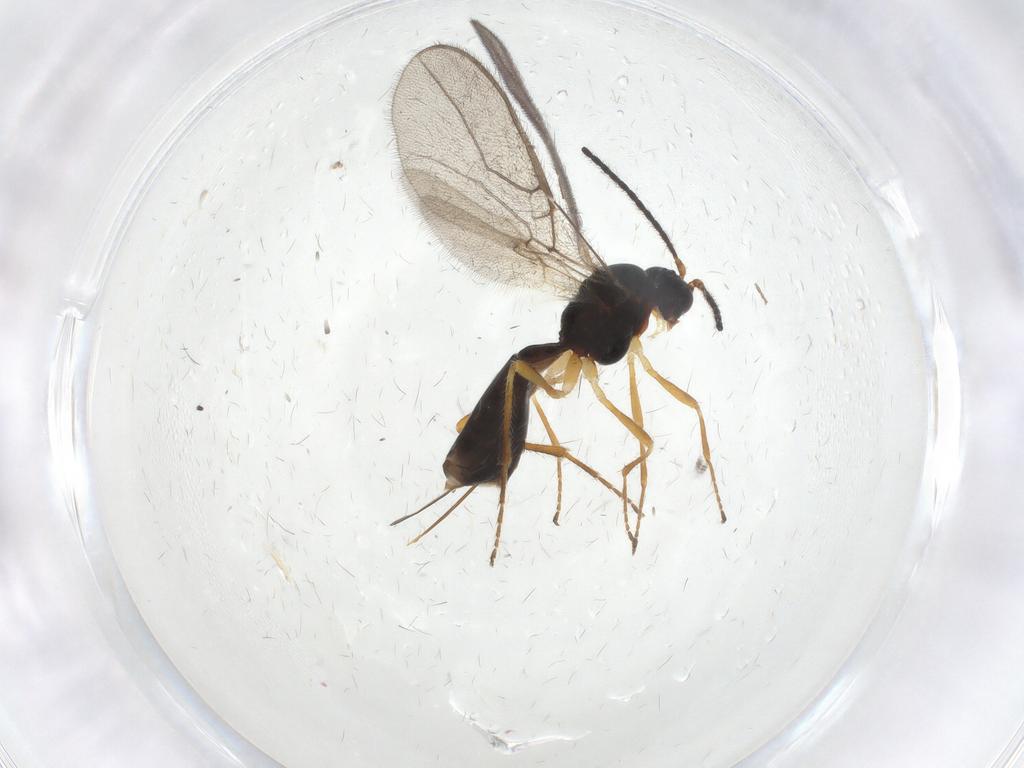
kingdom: Animalia
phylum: Arthropoda
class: Insecta
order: Hymenoptera
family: Braconidae
